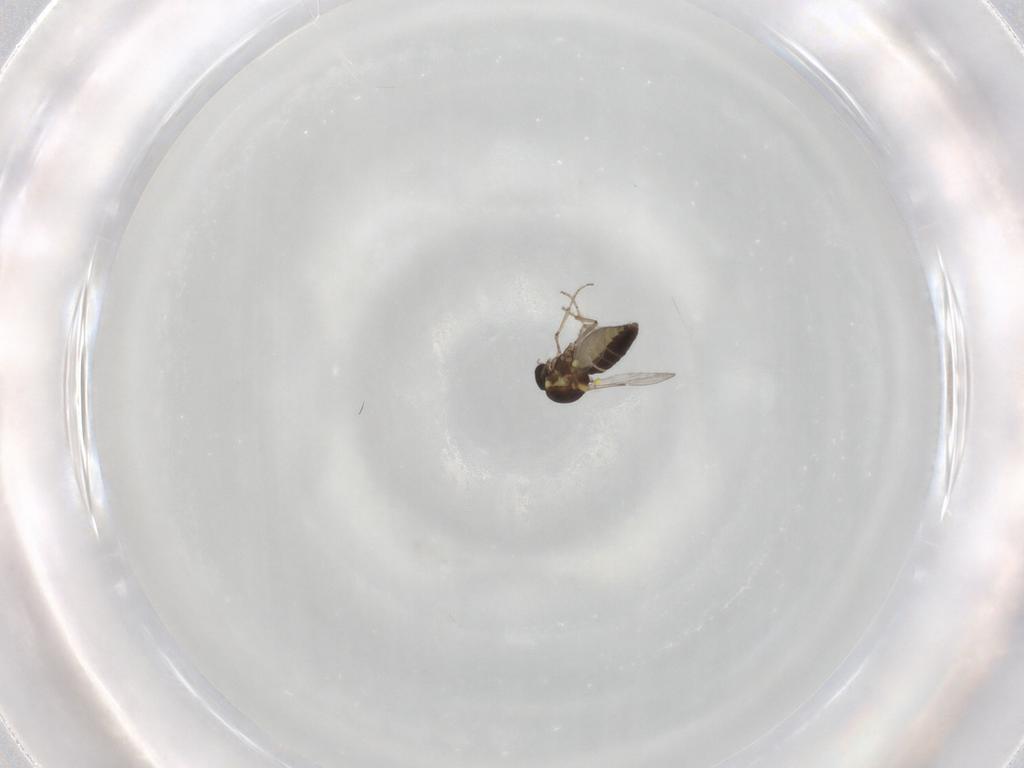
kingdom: Animalia
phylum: Arthropoda
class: Insecta
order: Diptera
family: Ceratopogonidae
